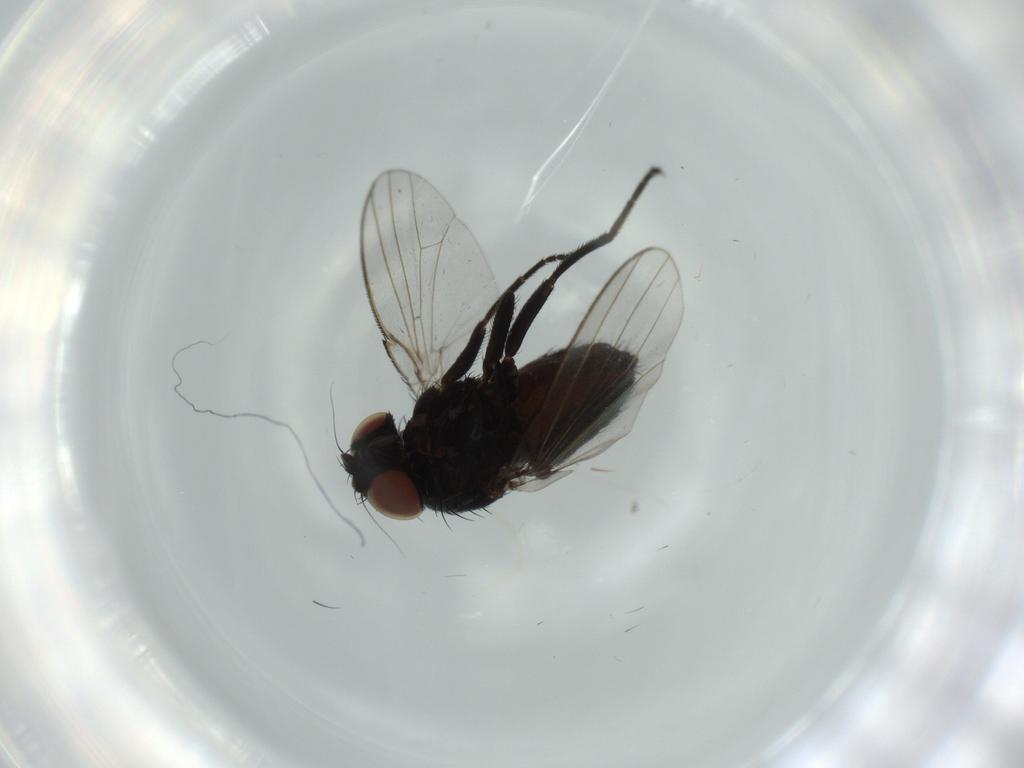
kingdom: Animalia
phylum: Arthropoda
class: Insecta
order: Diptera
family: Milichiidae
